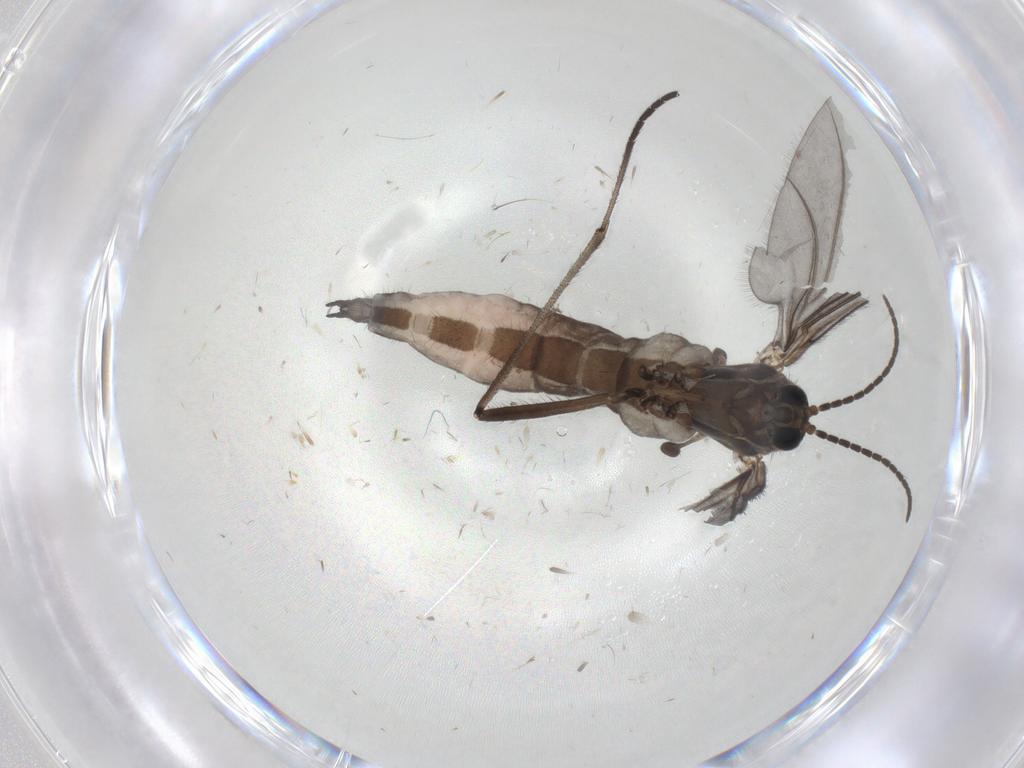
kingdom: Animalia
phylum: Arthropoda
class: Insecta
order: Diptera
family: Sciaridae
